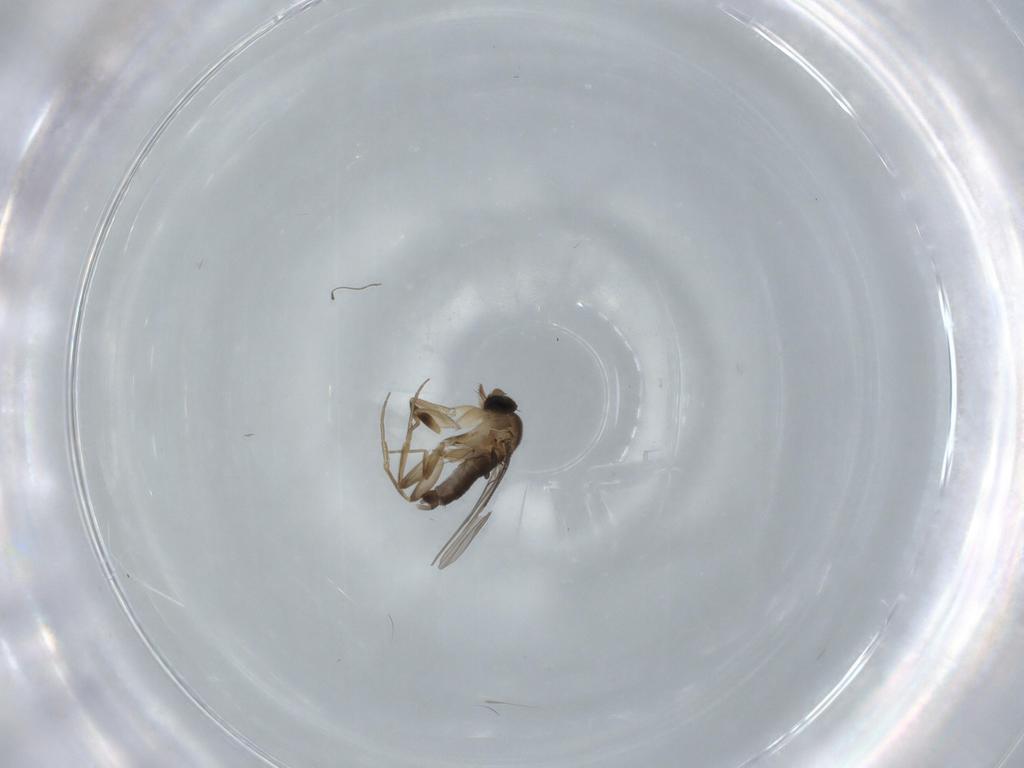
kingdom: Animalia
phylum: Arthropoda
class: Insecta
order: Diptera
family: Phoridae
